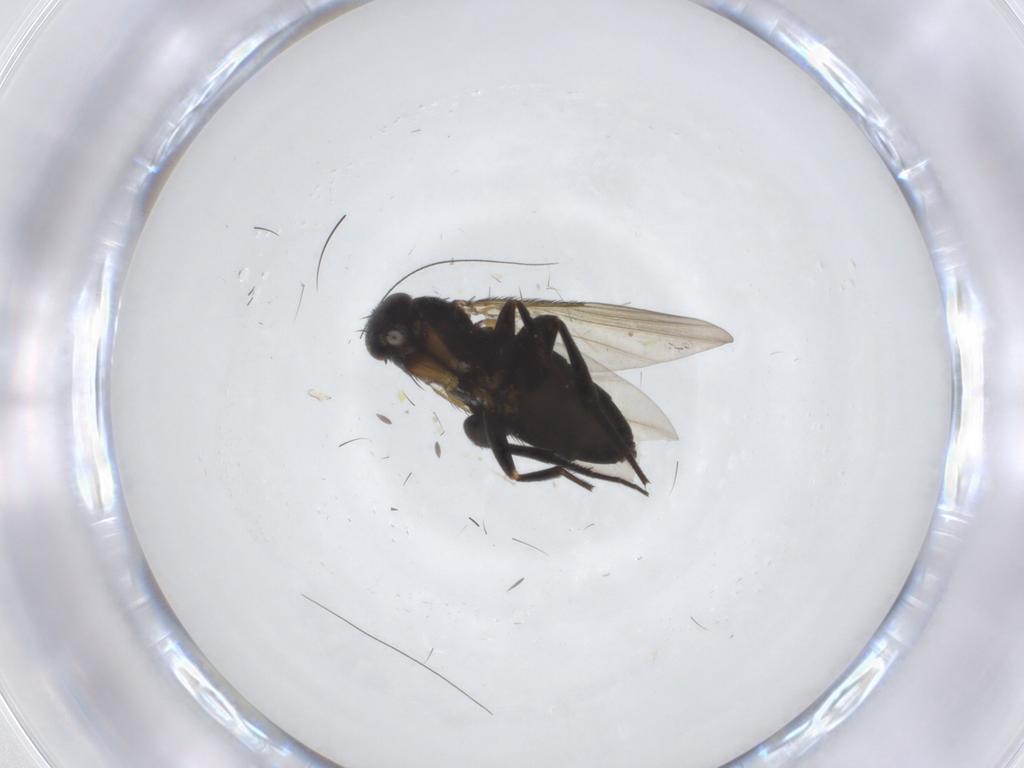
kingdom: Animalia
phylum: Arthropoda
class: Insecta
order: Diptera
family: Phoridae
